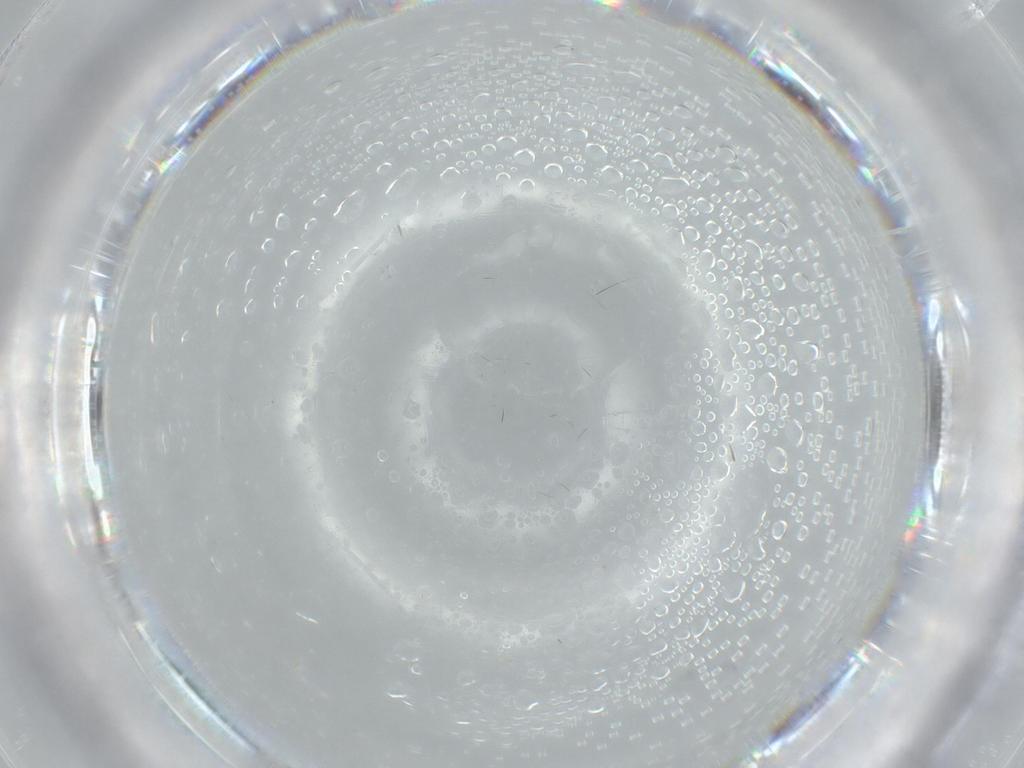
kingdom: Animalia
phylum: Arthropoda
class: Insecta
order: Hymenoptera
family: Aphelinidae
